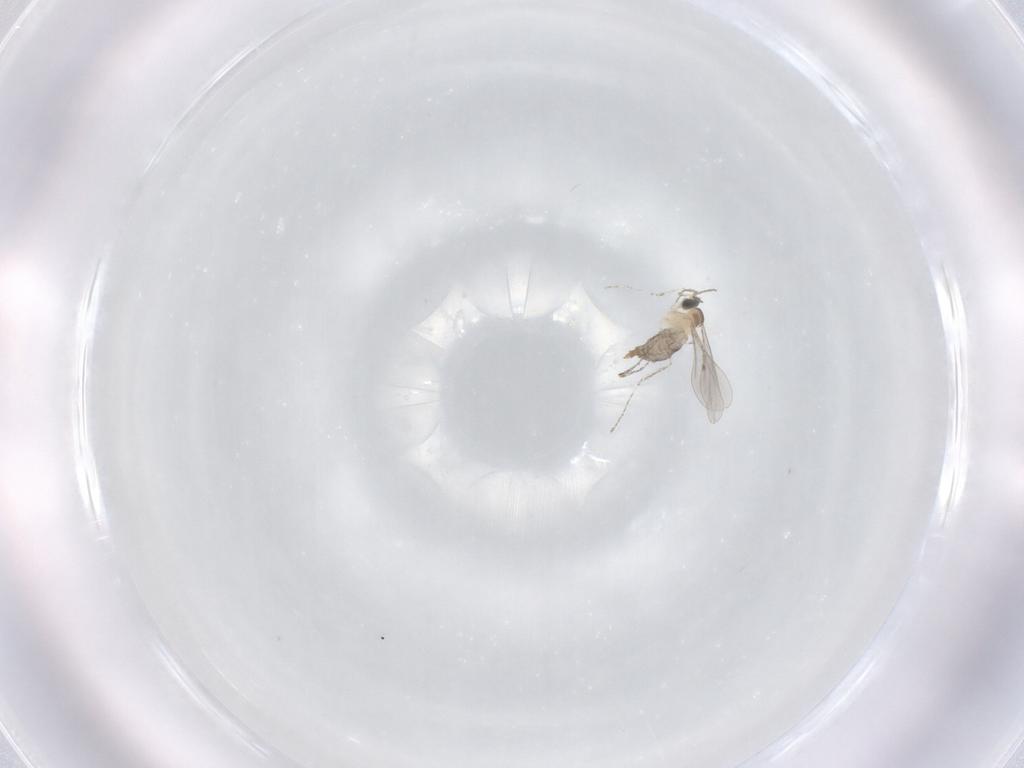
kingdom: Animalia
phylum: Arthropoda
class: Insecta
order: Diptera
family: Cecidomyiidae
